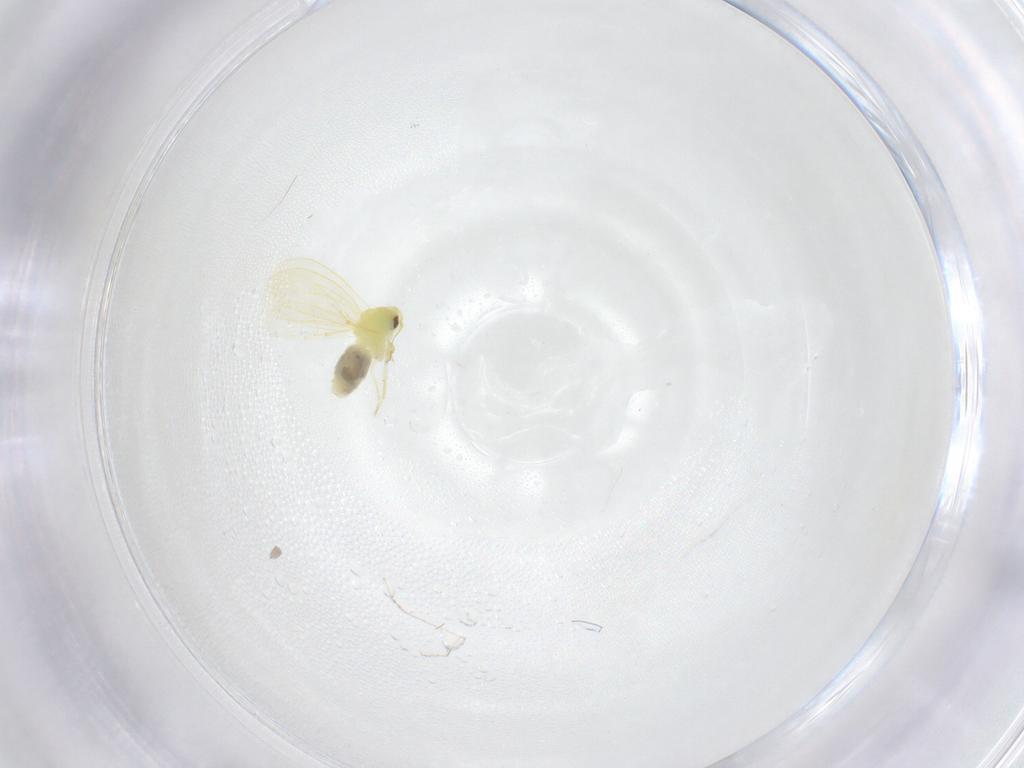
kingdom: Animalia
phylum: Arthropoda
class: Insecta
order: Hemiptera
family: Aleyrodidae
